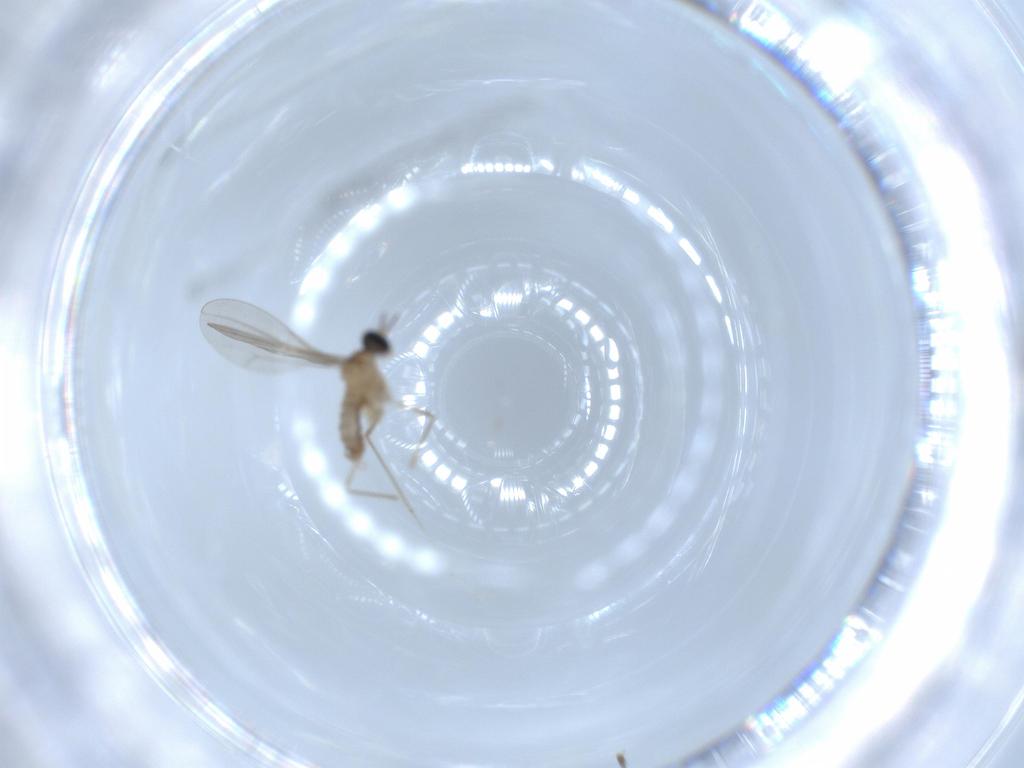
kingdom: Animalia
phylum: Arthropoda
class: Insecta
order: Diptera
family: Cecidomyiidae
